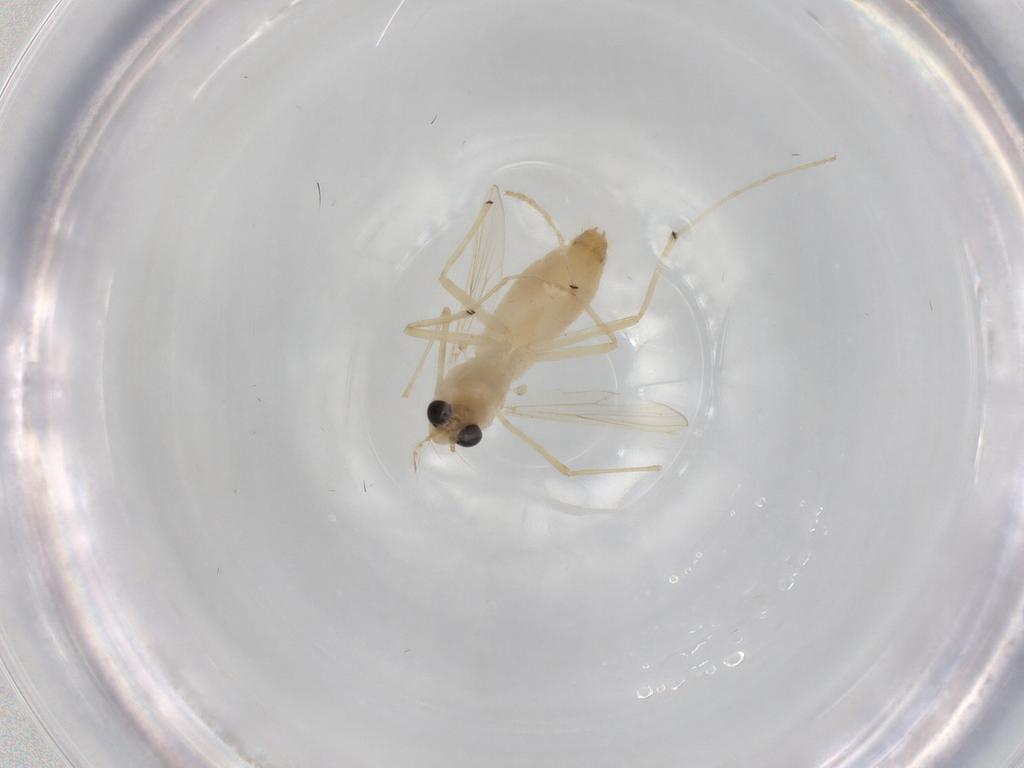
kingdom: Animalia
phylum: Arthropoda
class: Insecta
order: Diptera
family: Chironomidae
